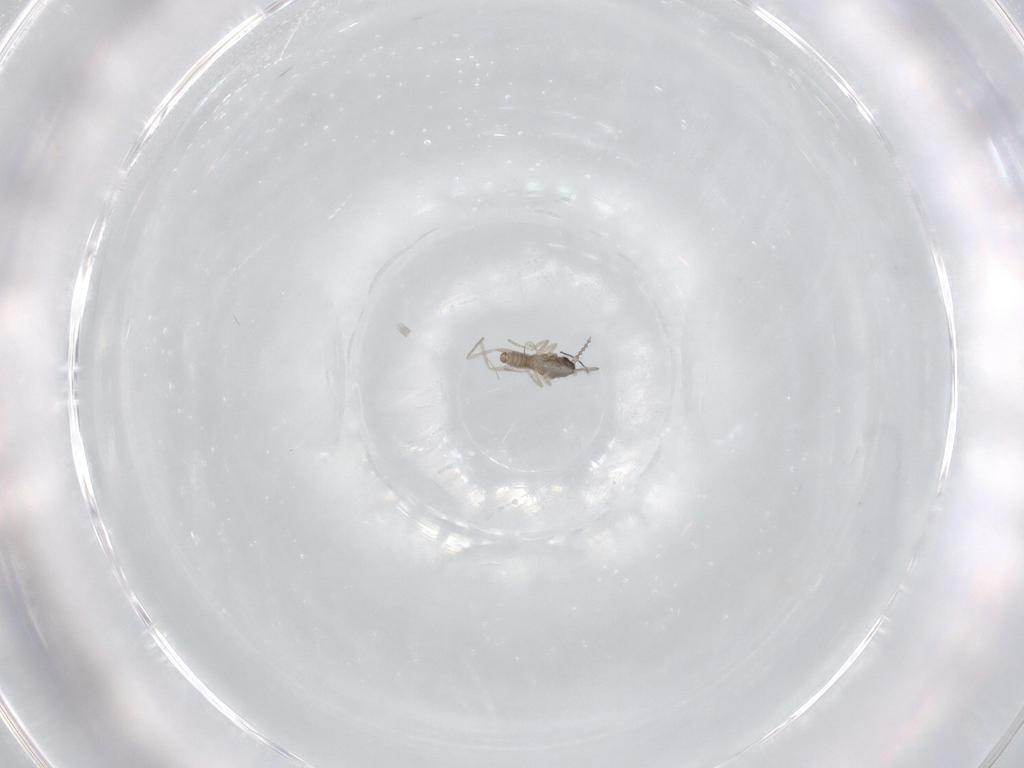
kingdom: Animalia
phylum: Arthropoda
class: Insecta
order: Diptera
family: Cecidomyiidae
